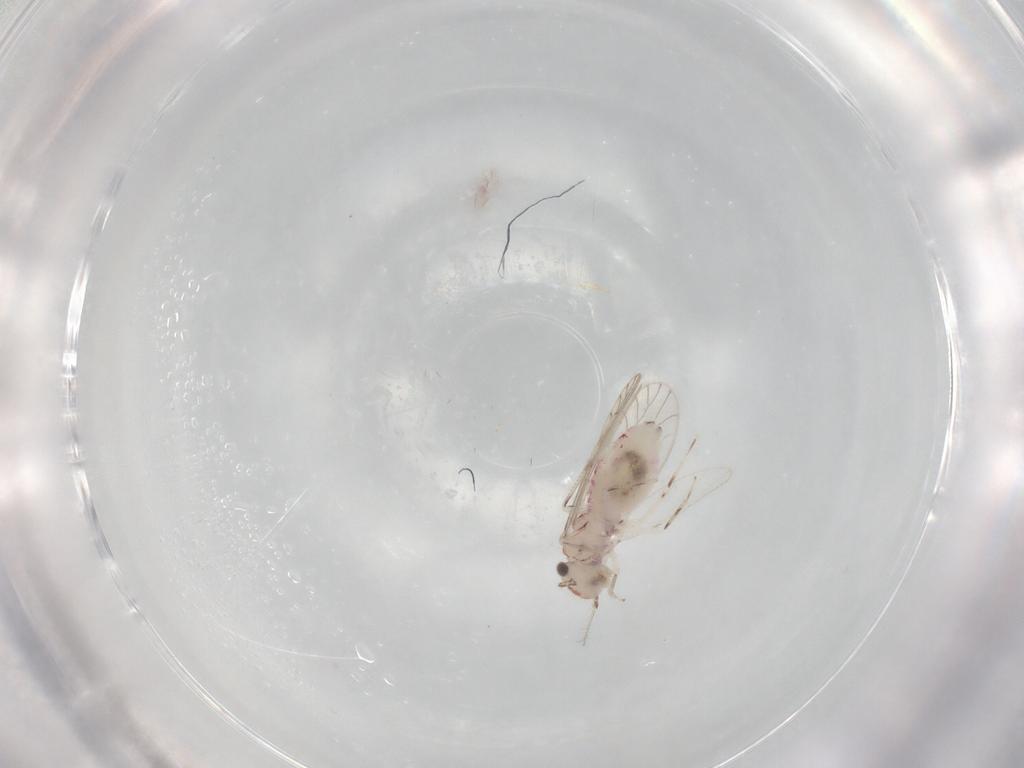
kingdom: Animalia
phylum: Arthropoda
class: Insecta
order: Psocodea
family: Caeciliusidae
